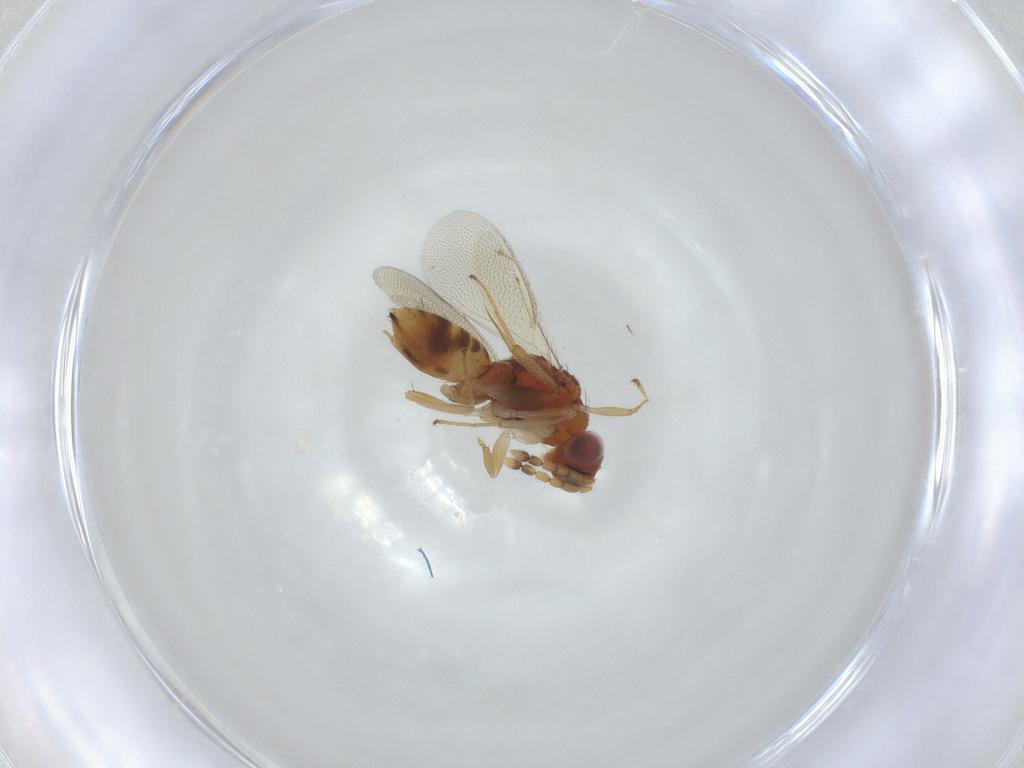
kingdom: Animalia
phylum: Arthropoda
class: Insecta
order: Hymenoptera
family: Eulophidae
